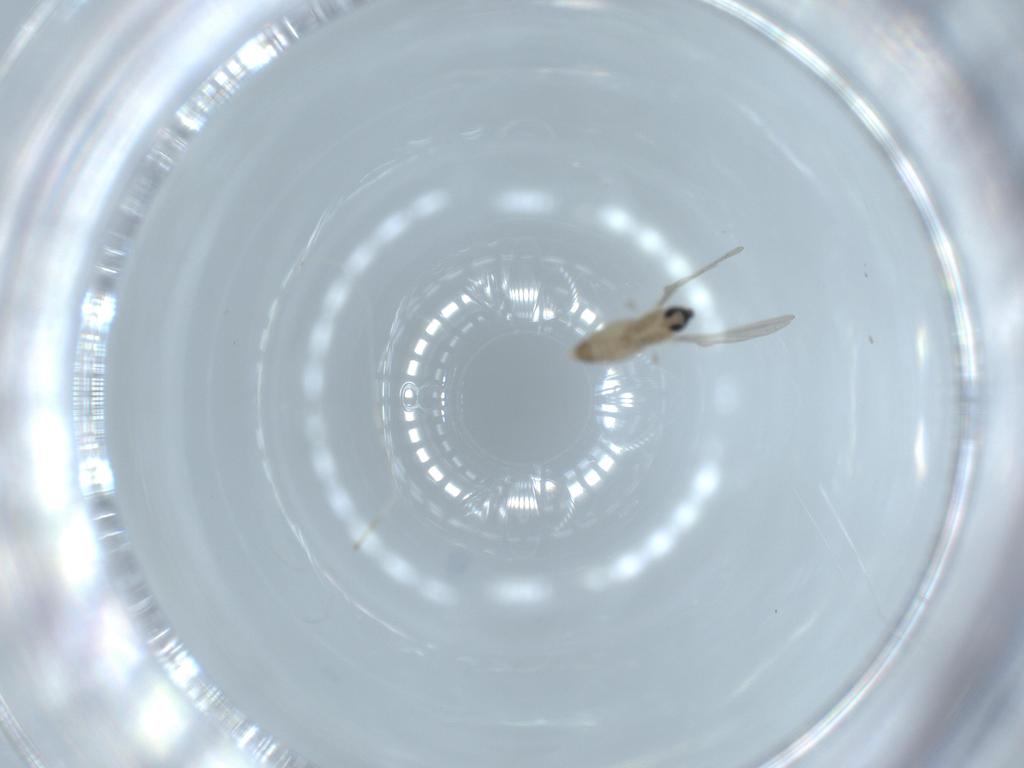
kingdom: Animalia
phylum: Arthropoda
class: Insecta
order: Diptera
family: Cecidomyiidae
